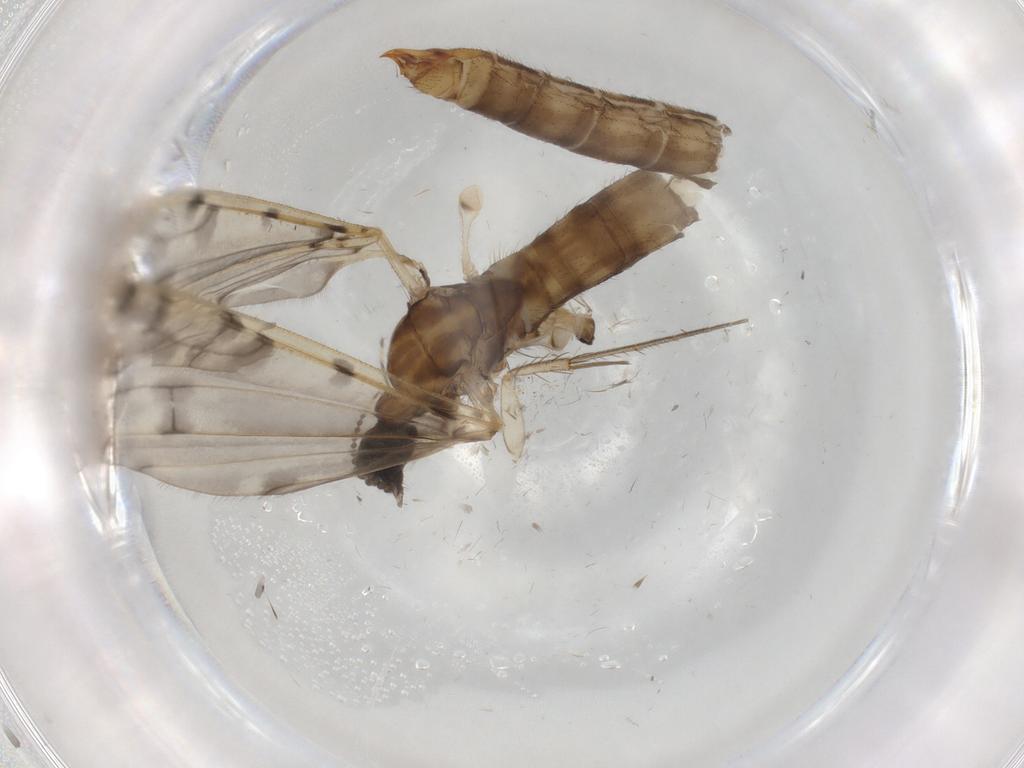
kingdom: Animalia
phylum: Arthropoda
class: Insecta
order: Diptera
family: Limoniidae
